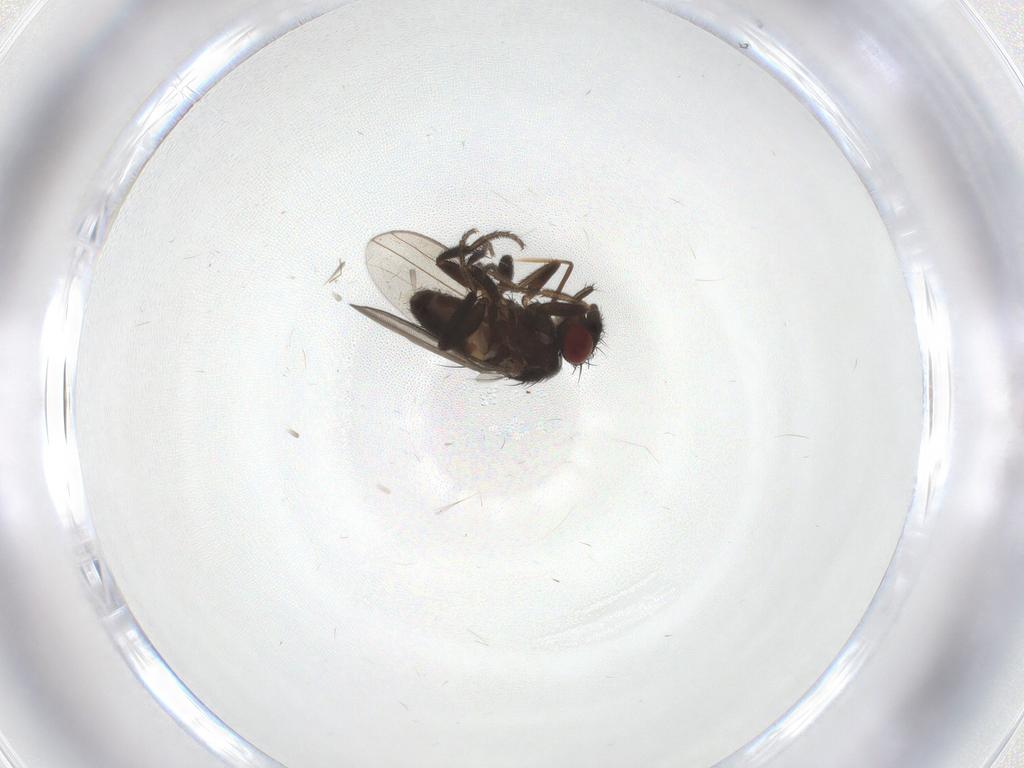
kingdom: Animalia
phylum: Arthropoda
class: Insecta
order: Diptera
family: Milichiidae
